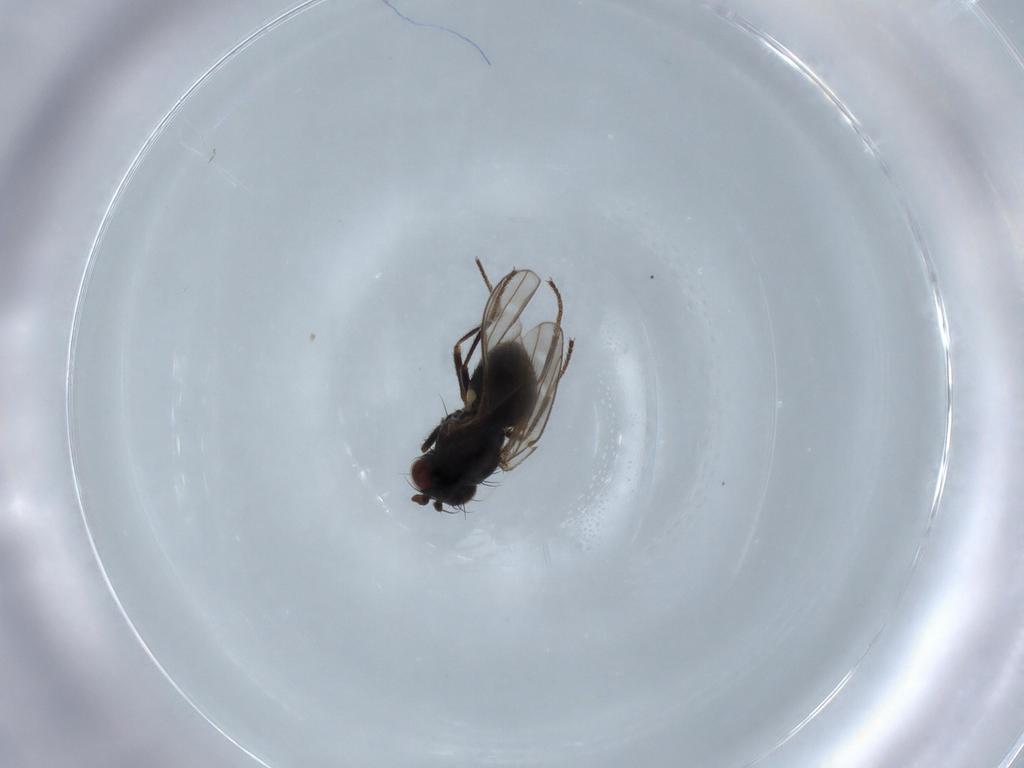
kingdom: Animalia
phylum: Arthropoda
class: Insecta
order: Diptera
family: Ephydridae
